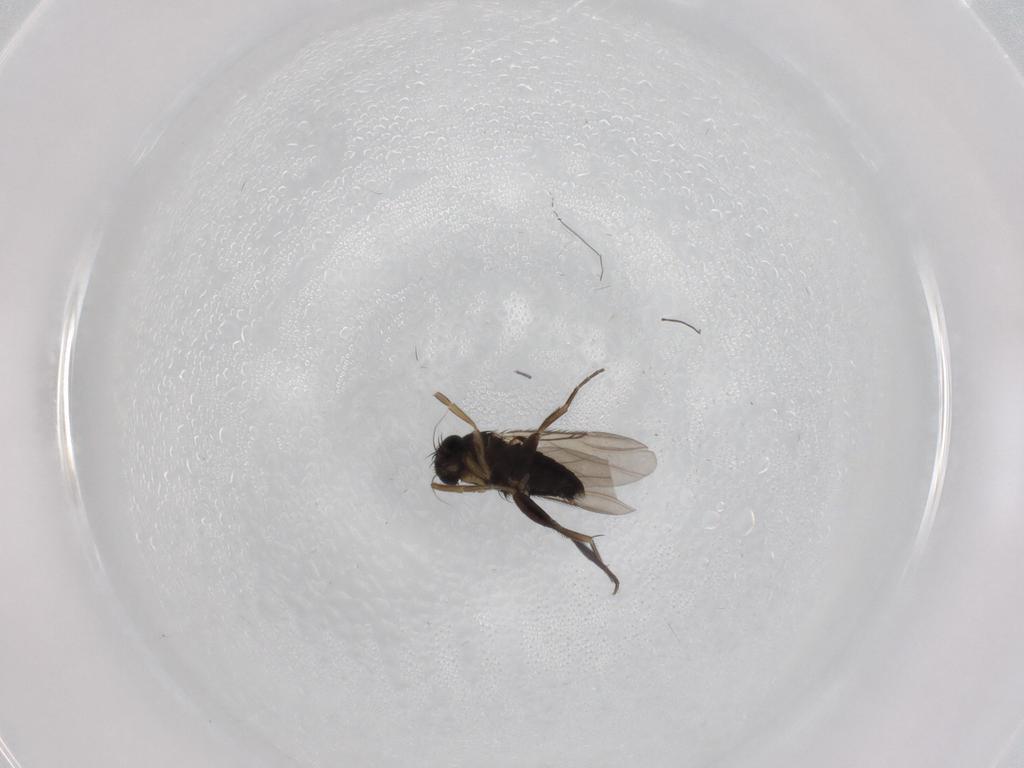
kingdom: Animalia
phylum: Arthropoda
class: Insecta
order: Diptera
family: Phoridae
